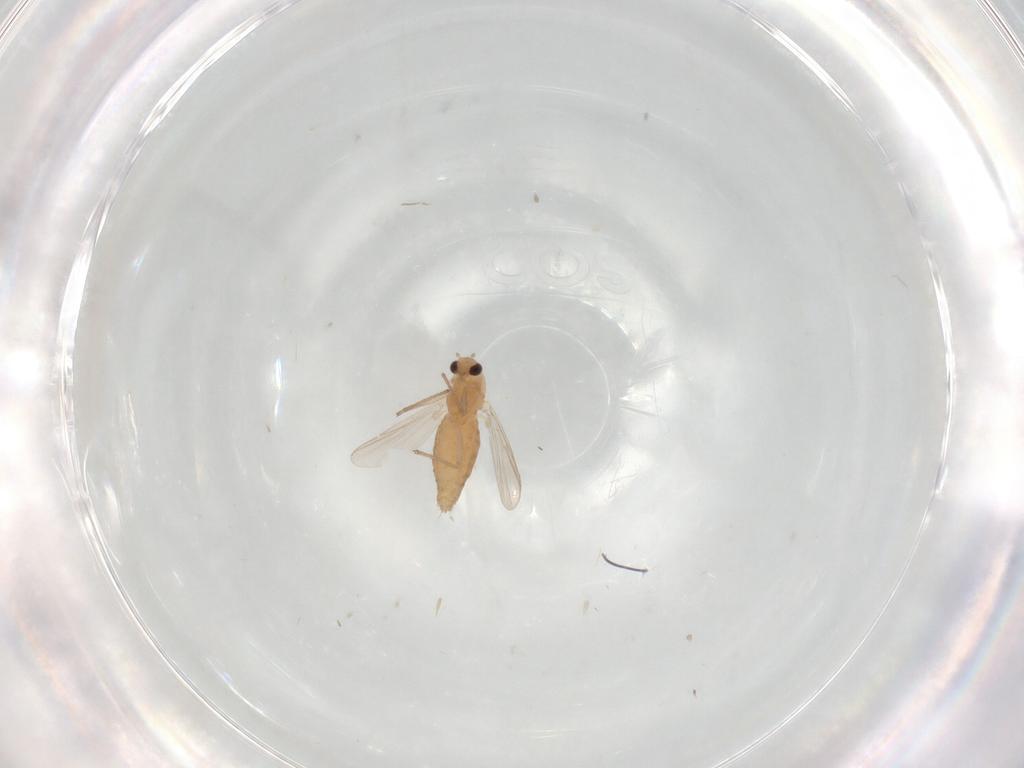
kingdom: Animalia
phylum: Arthropoda
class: Insecta
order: Diptera
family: Chironomidae
